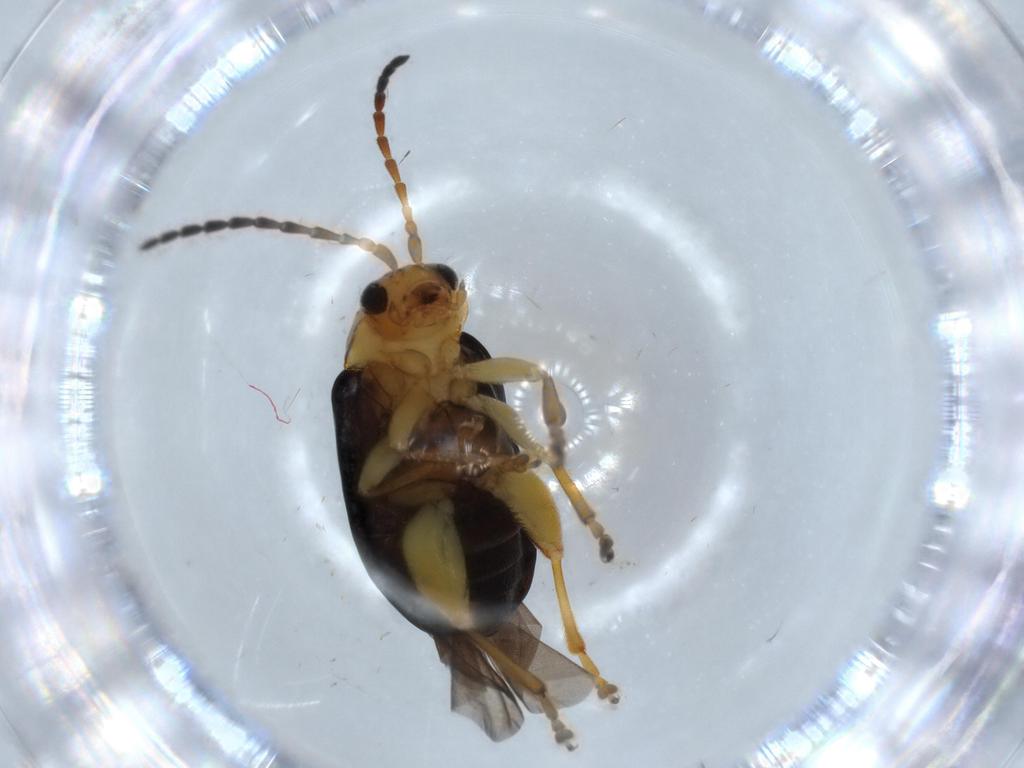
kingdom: Animalia
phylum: Arthropoda
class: Insecta
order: Coleoptera
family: Chrysomelidae
